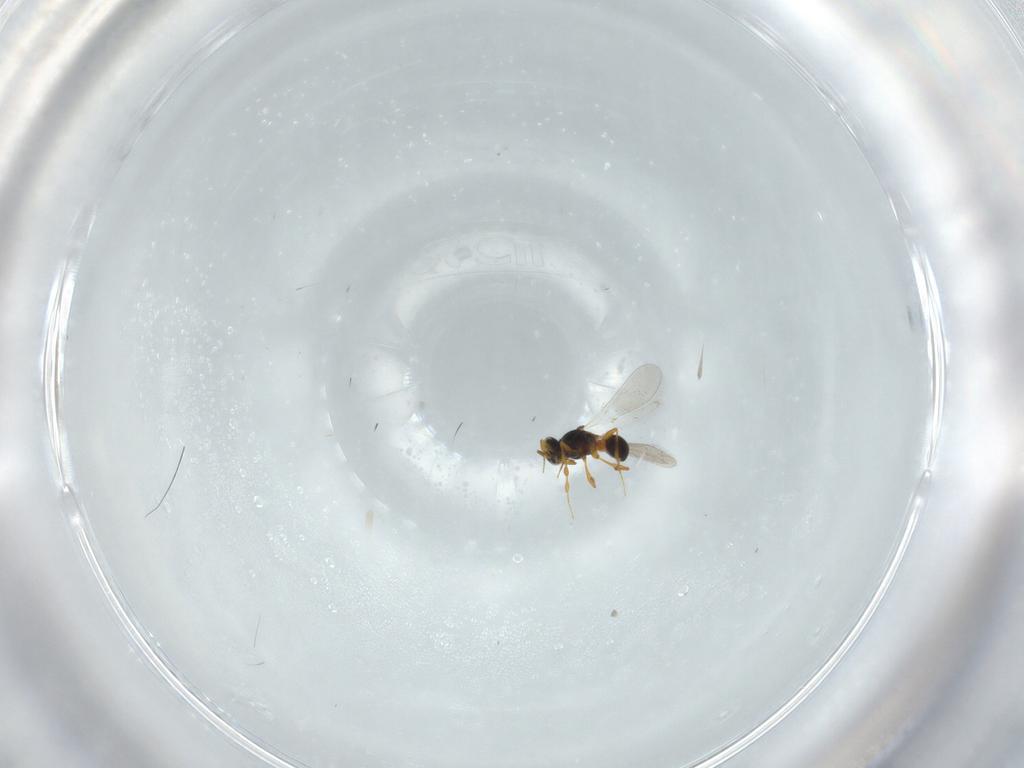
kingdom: Animalia
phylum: Arthropoda
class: Insecta
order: Hymenoptera
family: Platygastridae
